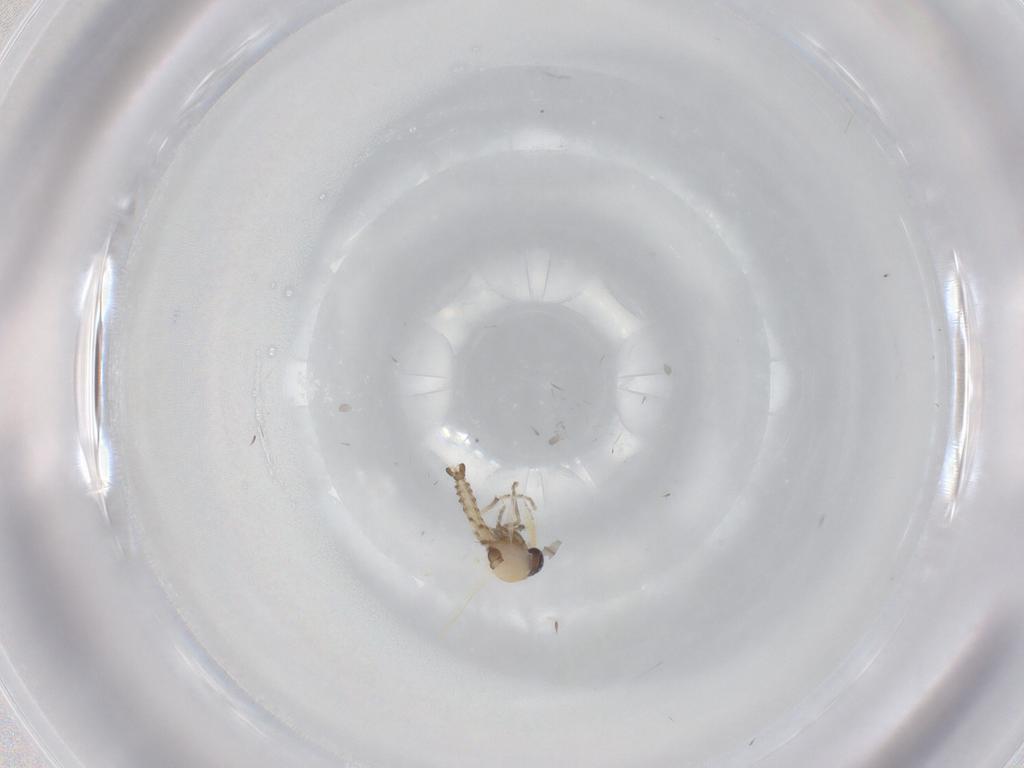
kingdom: Animalia
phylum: Arthropoda
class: Insecta
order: Diptera
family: Ceratopogonidae
